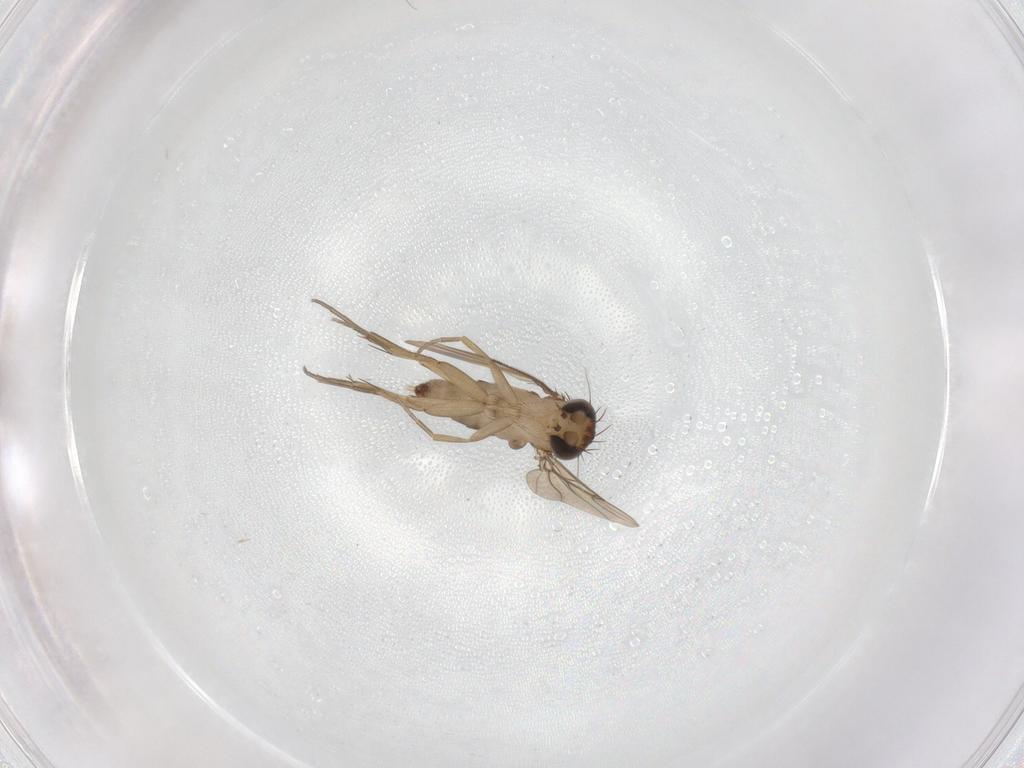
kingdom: Animalia
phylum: Arthropoda
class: Insecta
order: Diptera
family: Phoridae
